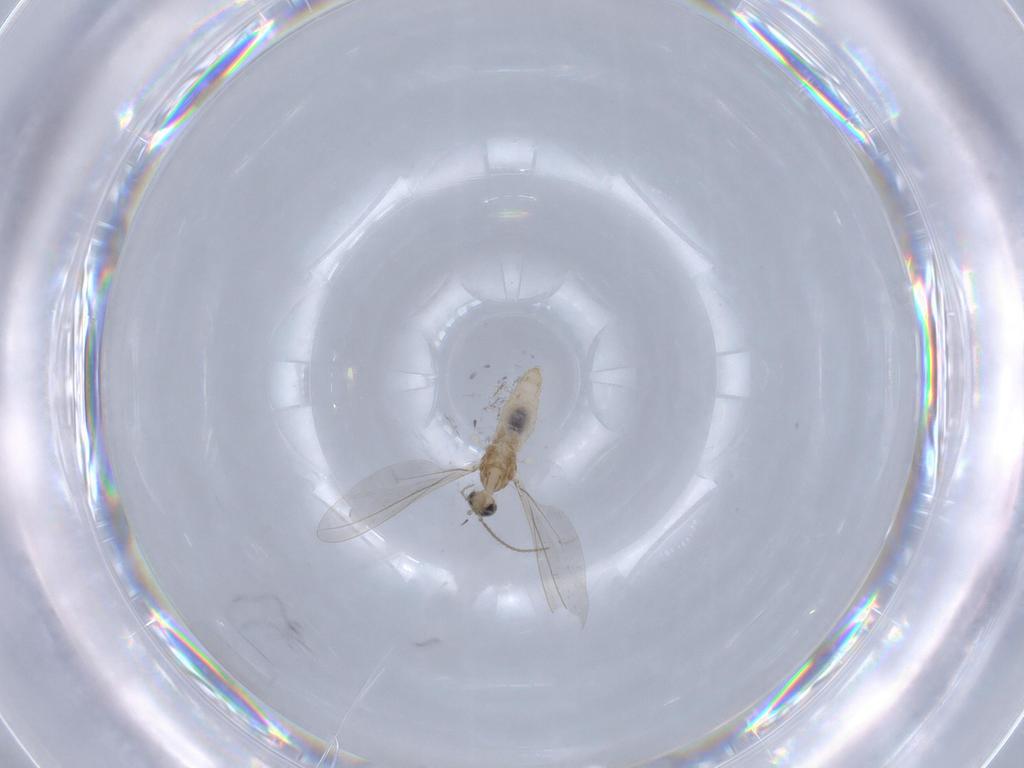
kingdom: Animalia
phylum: Arthropoda
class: Insecta
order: Diptera
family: Cecidomyiidae
